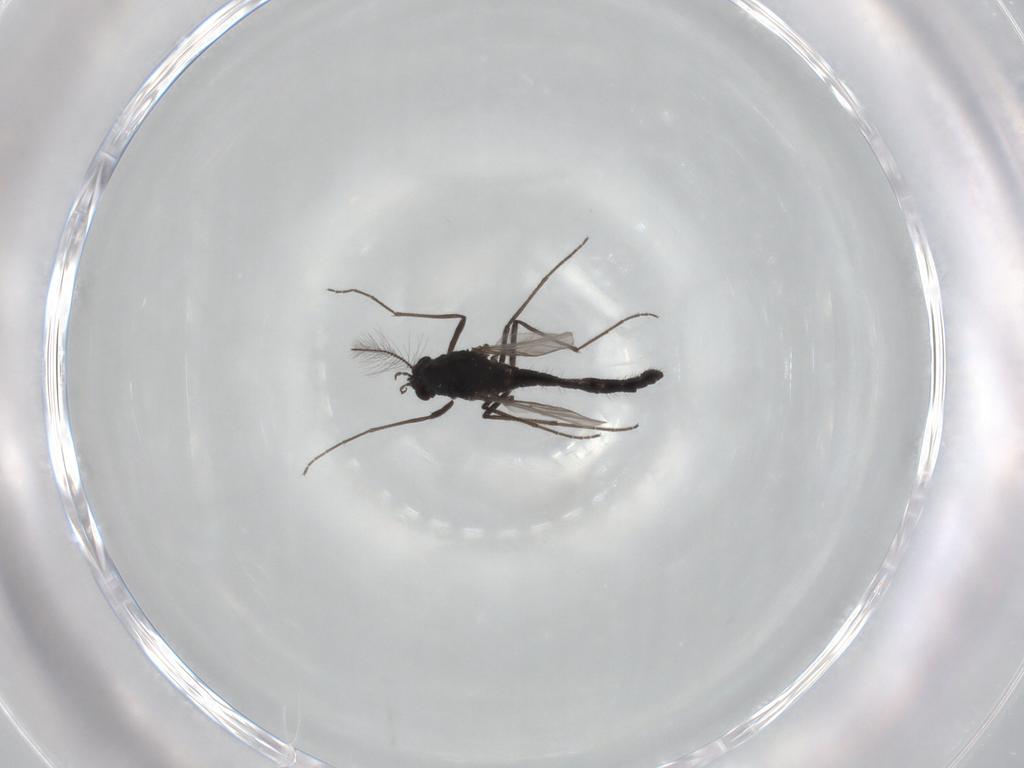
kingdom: Animalia
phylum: Arthropoda
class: Insecta
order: Diptera
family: Chironomidae
